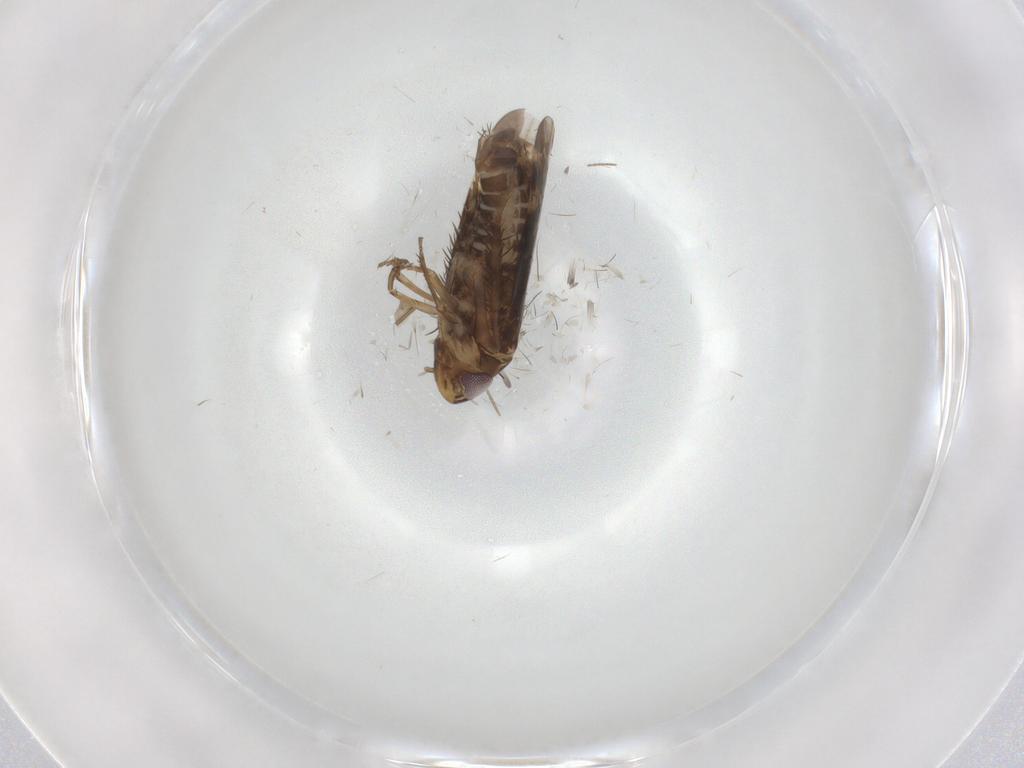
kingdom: Animalia
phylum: Arthropoda
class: Insecta
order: Hemiptera
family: Cicadellidae
